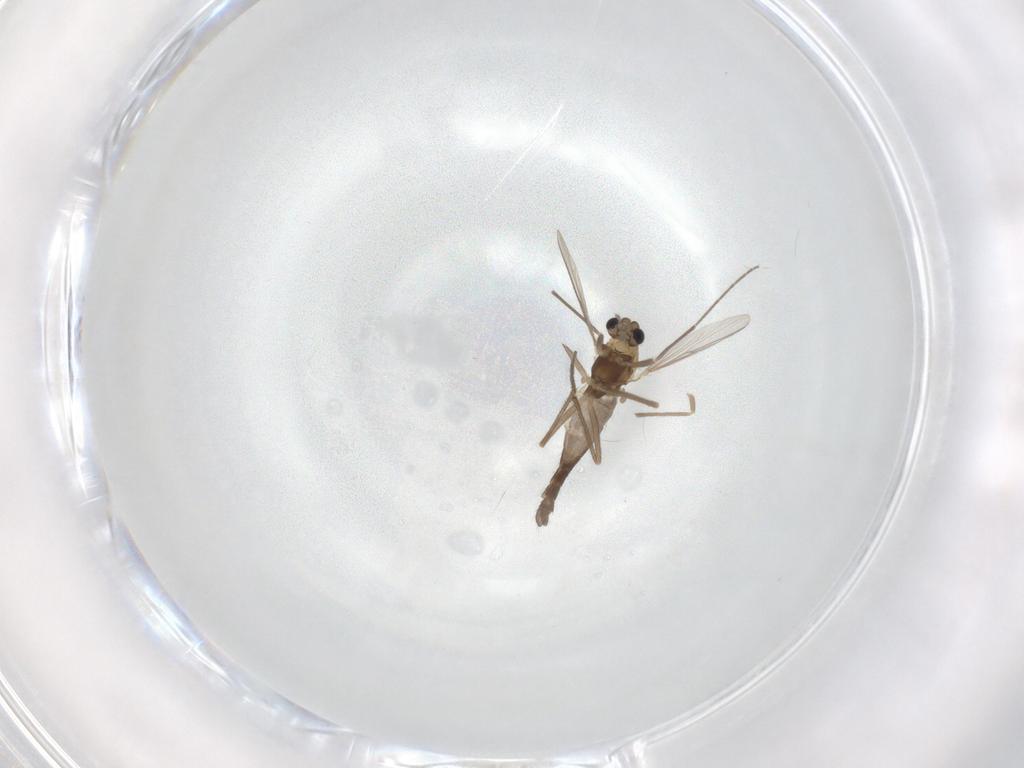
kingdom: Animalia
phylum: Arthropoda
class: Insecta
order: Diptera
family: Chironomidae
